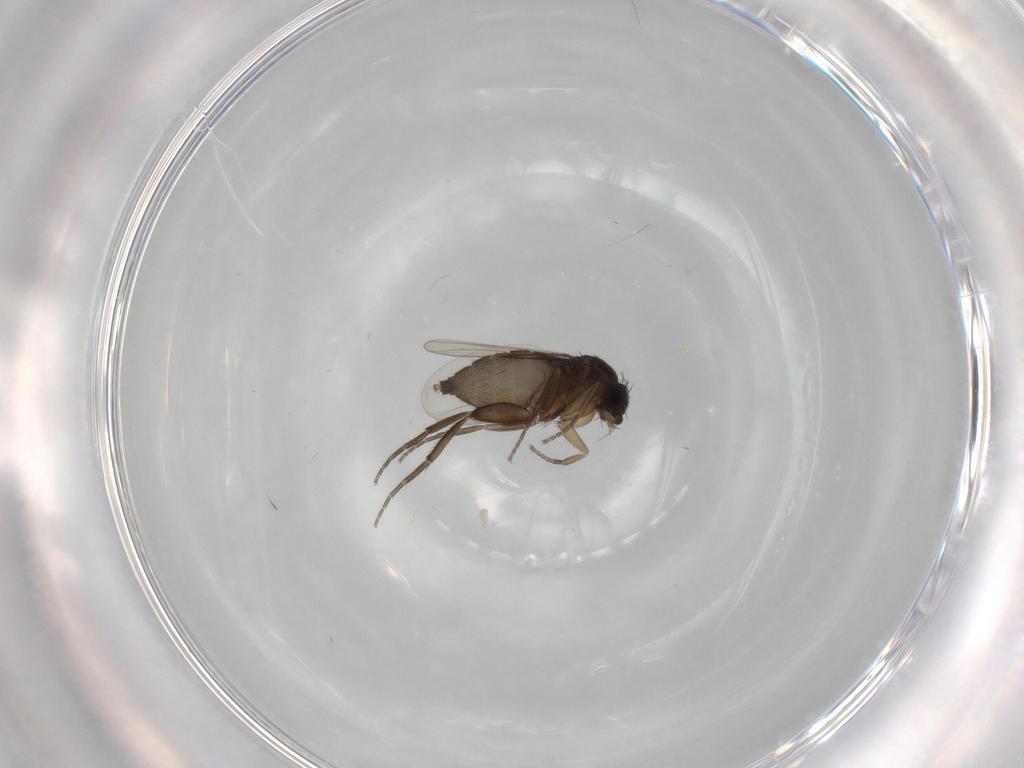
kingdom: Animalia
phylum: Arthropoda
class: Insecta
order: Diptera
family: Phoridae
